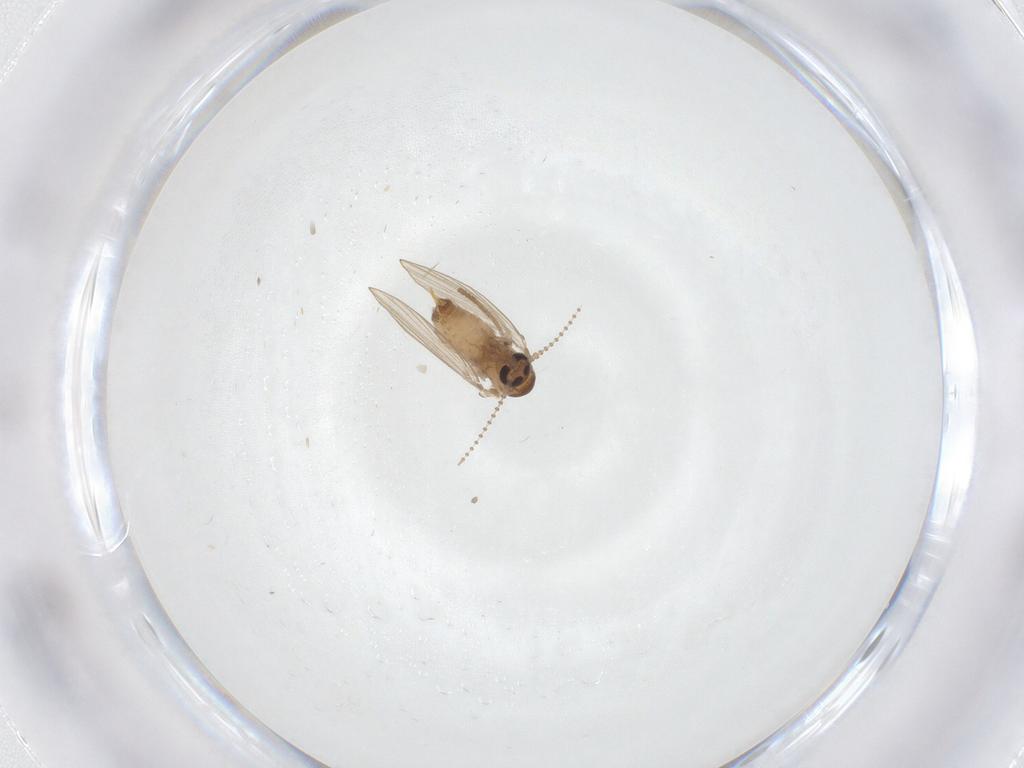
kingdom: Animalia
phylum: Arthropoda
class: Insecta
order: Diptera
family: Psychodidae
